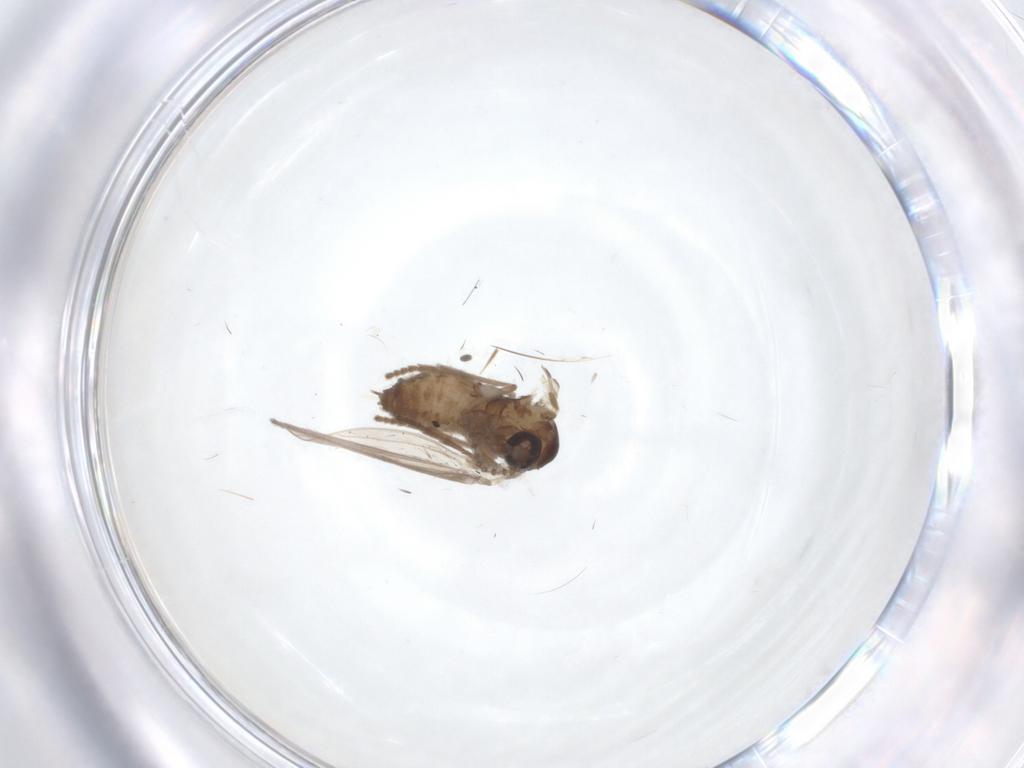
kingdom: Animalia
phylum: Arthropoda
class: Insecta
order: Diptera
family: Psychodidae
